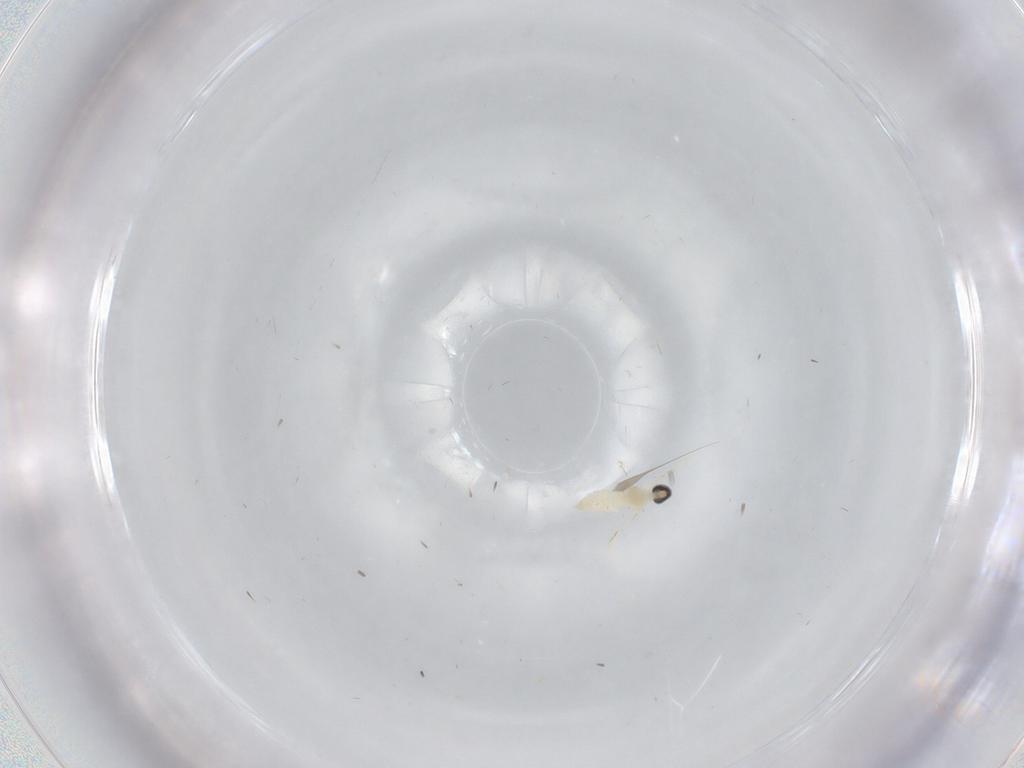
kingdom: Animalia
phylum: Arthropoda
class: Insecta
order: Diptera
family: Cecidomyiidae
